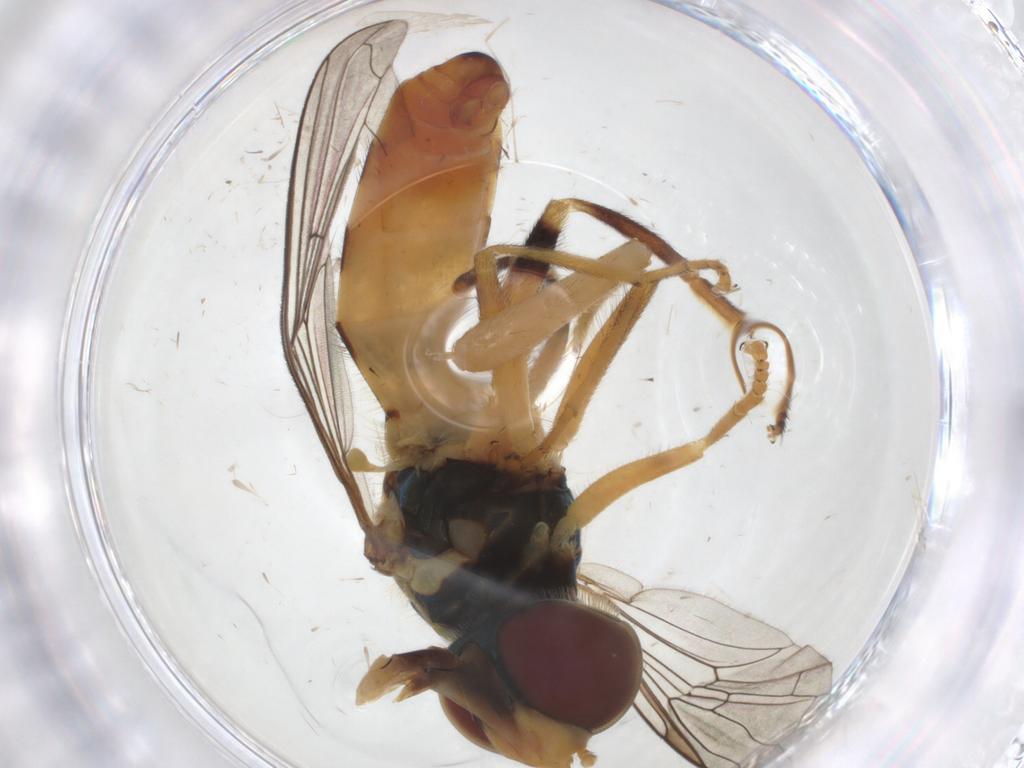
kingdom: Animalia
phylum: Arthropoda
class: Insecta
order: Diptera
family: Syrphidae
